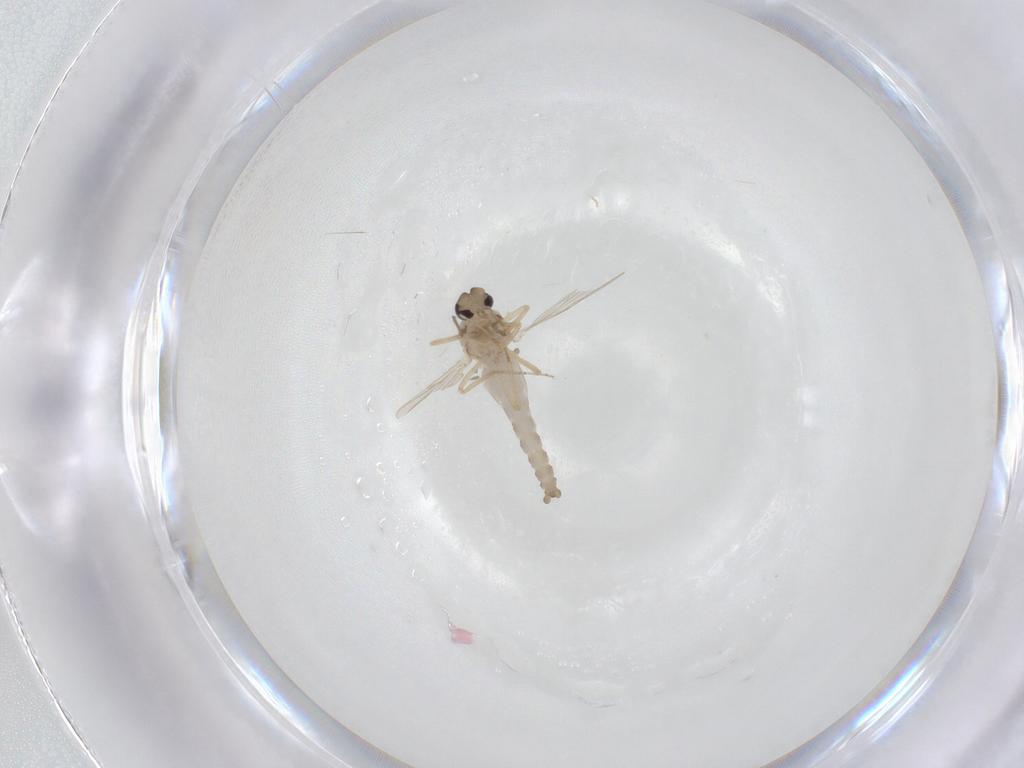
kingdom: Animalia
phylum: Arthropoda
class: Insecta
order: Diptera
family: Ceratopogonidae
